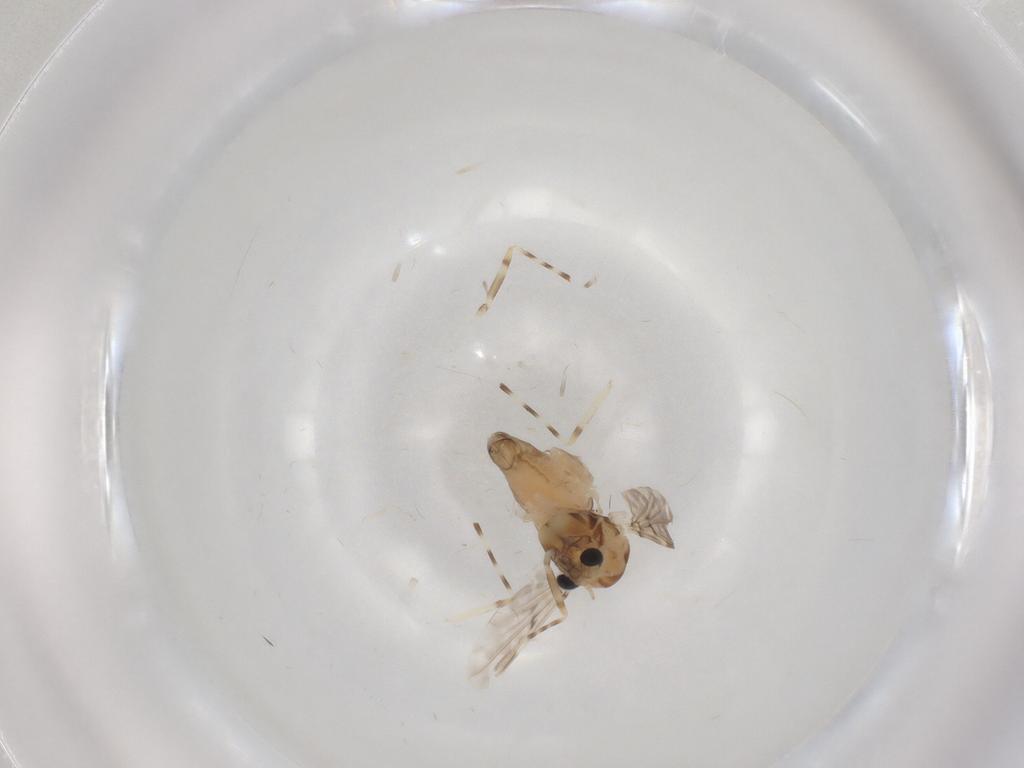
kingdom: Animalia
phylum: Arthropoda
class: Insecta
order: Diptera
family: Chironomidae
